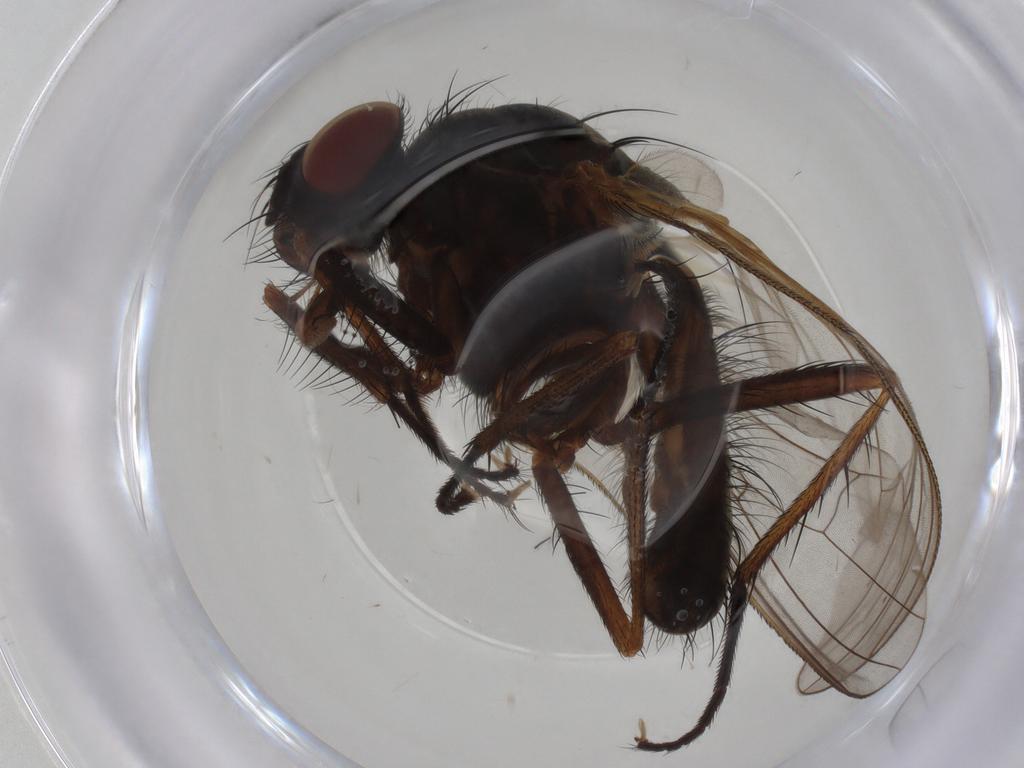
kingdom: Animalia
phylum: Arthropoda
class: Insecta
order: Diptera
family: Anthomyiidae
